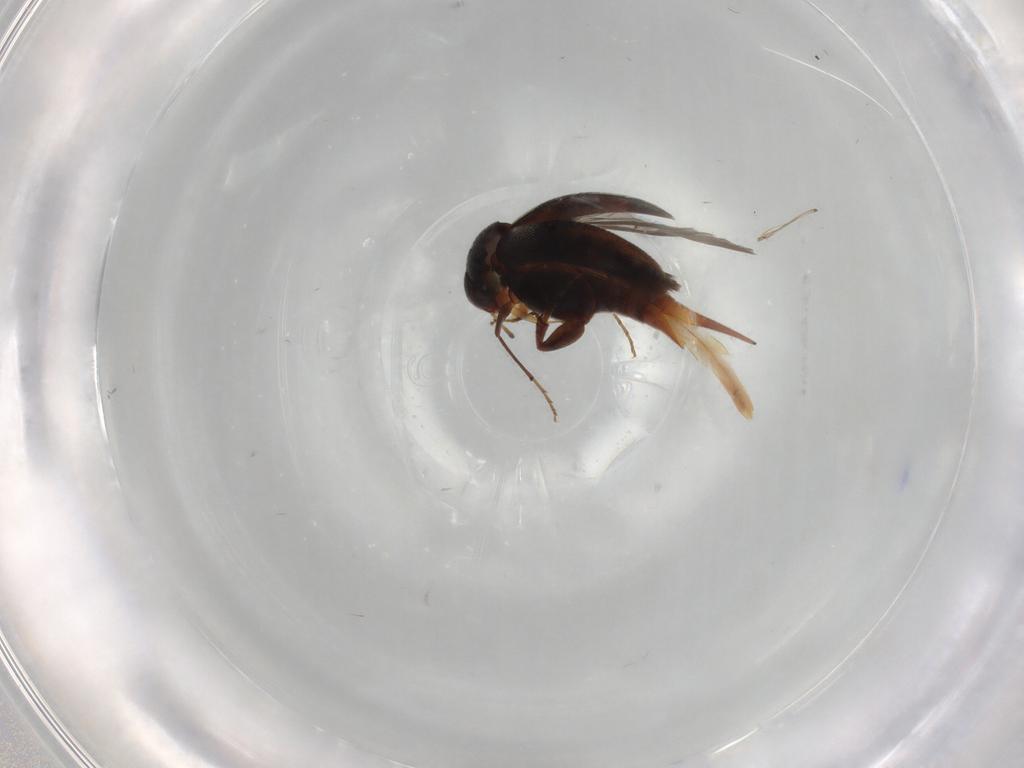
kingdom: Animalia
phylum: Arthropoda
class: Insecta
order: Coleoptera
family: Mordellidae
